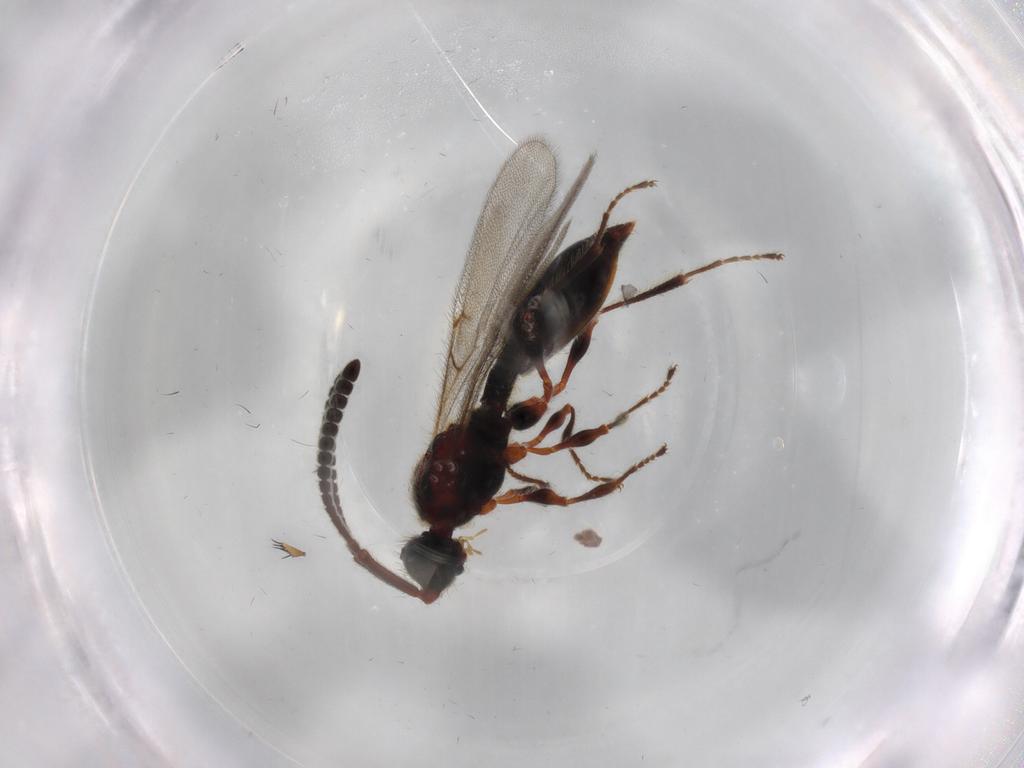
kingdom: Animalia
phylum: Arthropoda
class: Insecta
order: Hymenoptera
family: Diapriidae
